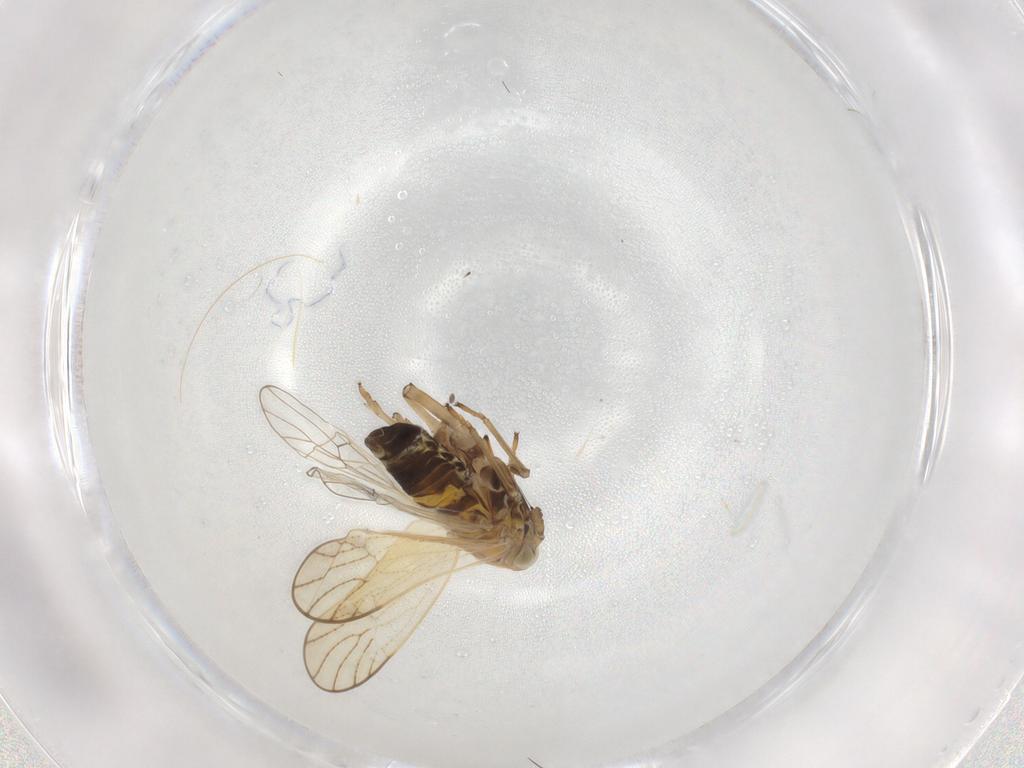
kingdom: Animalia
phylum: Arthropoda
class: Insecta
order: Hemiptera
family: Delphacidae
